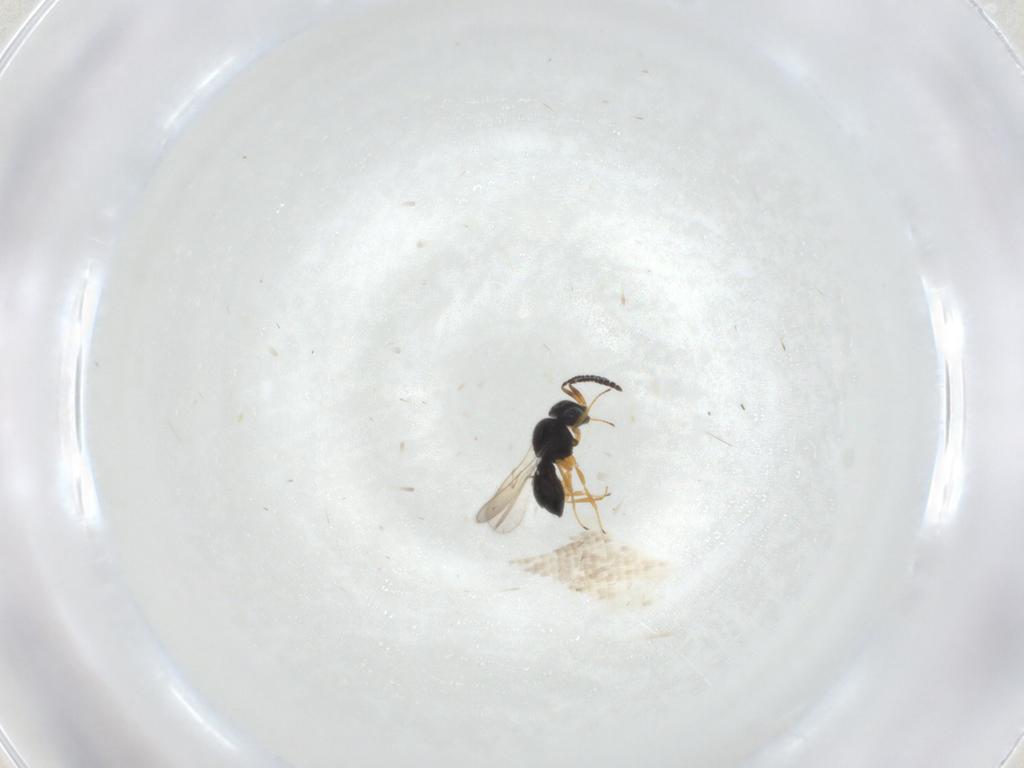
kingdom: Animalia
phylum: Arthropoda
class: Insecta
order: Hymenoptera
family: Scelionidae
